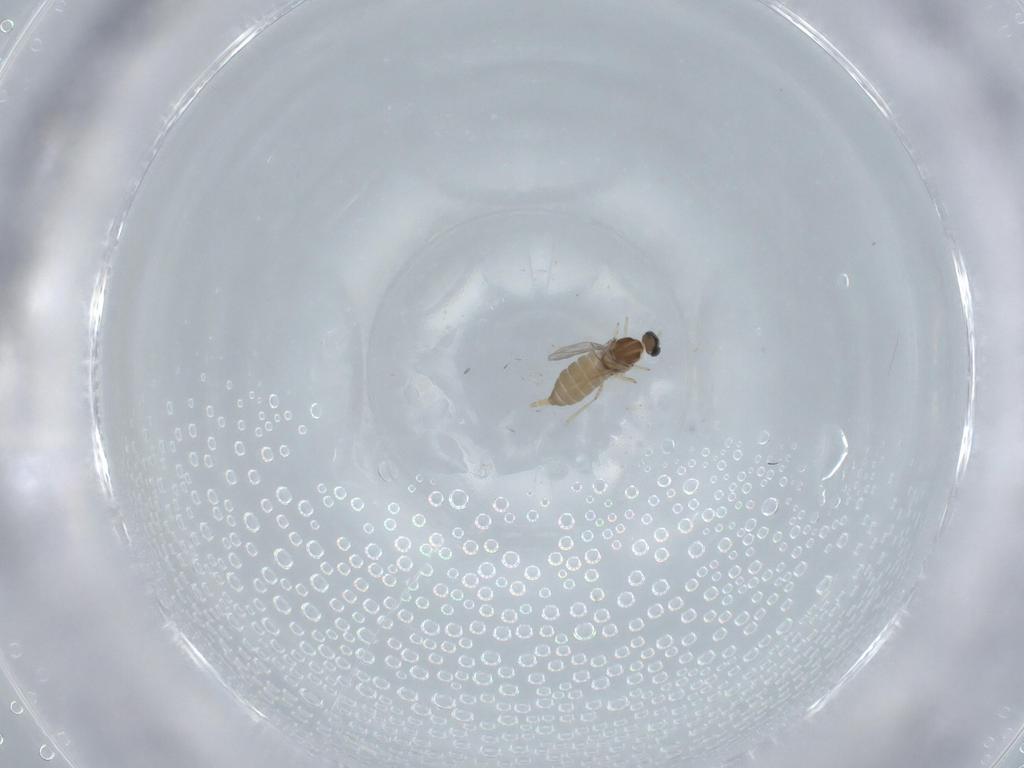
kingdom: Animalia
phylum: Arthropoda
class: Insecta
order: Diptera
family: Cecidomyiidae
